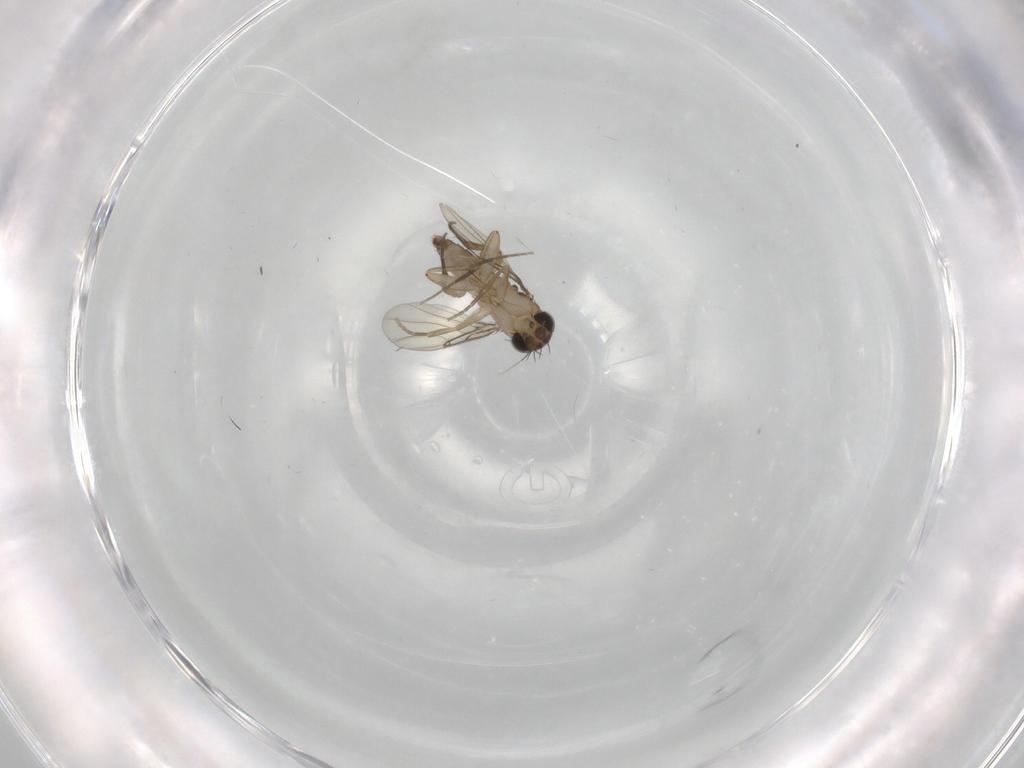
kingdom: Animalia
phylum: Arthropoda
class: Insecta
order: Diptera
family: Phoridae
